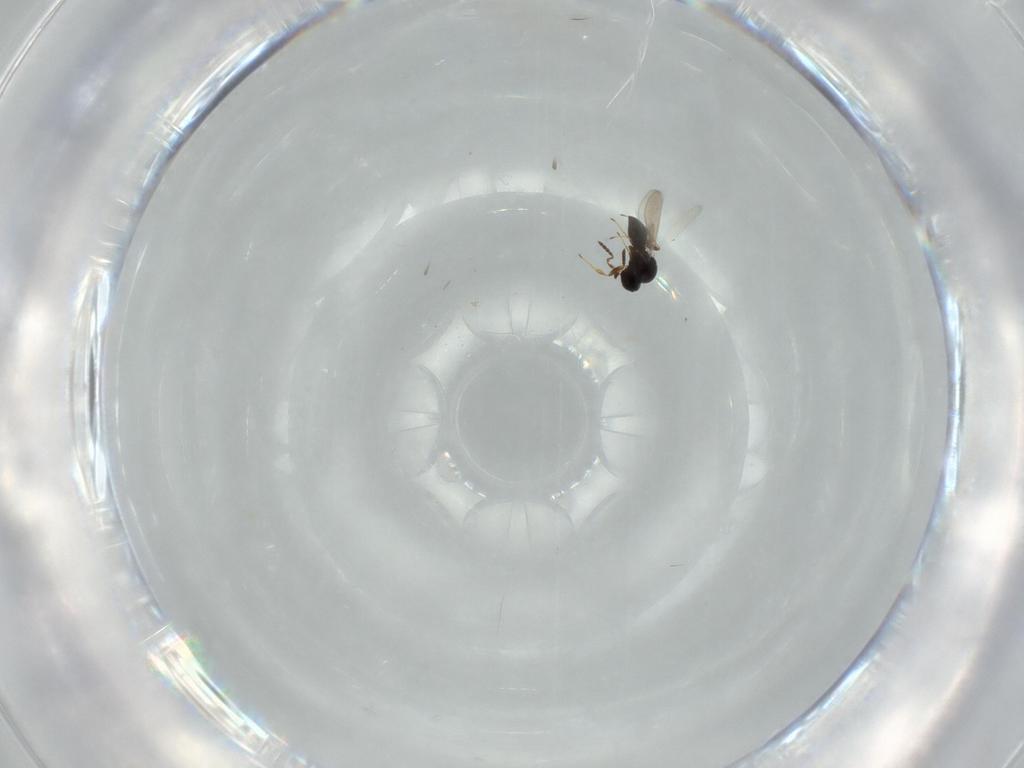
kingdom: Animalia
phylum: Arthropoda
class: Insecta
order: Hymenoptera
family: Platygastridae
